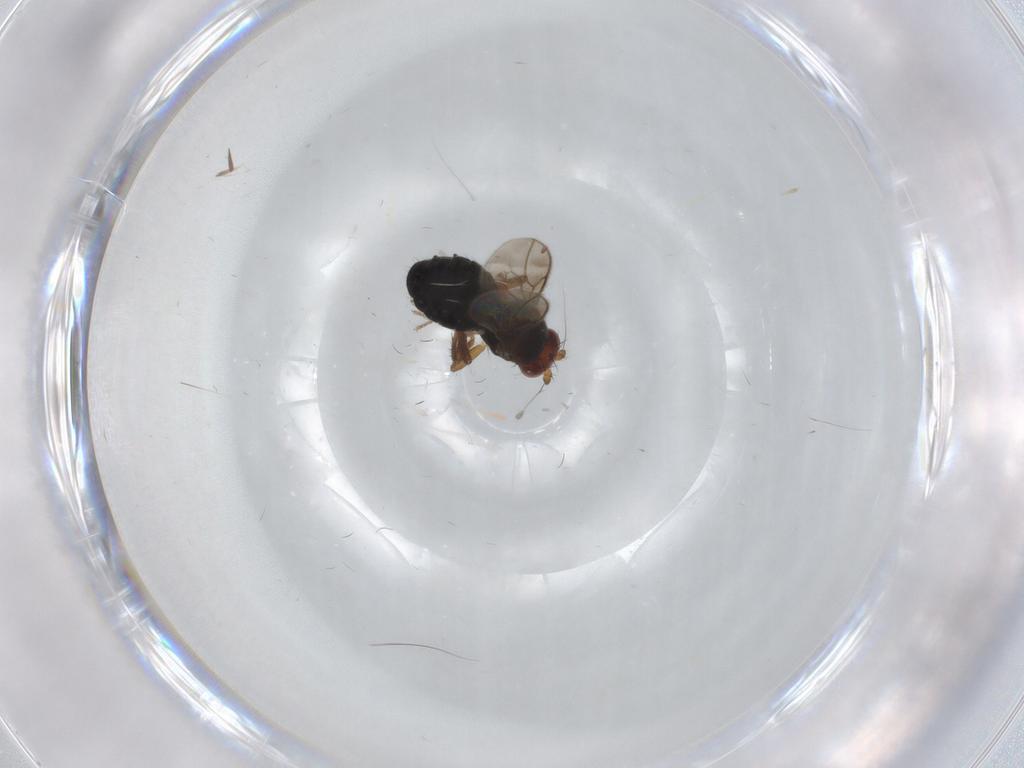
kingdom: Animalia
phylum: Arthropoda
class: Insecta
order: Diptera
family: Sphaeroceridae
